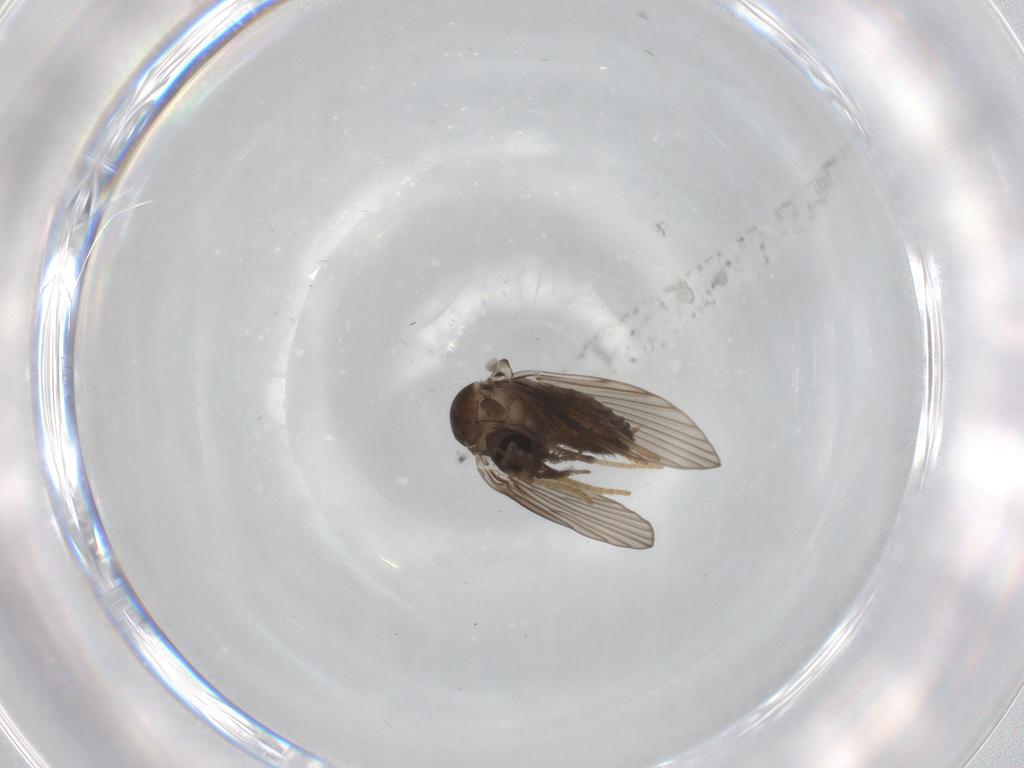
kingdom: Animalia
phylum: Arthropoda
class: Insecta
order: Diptera
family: Psychodidae
